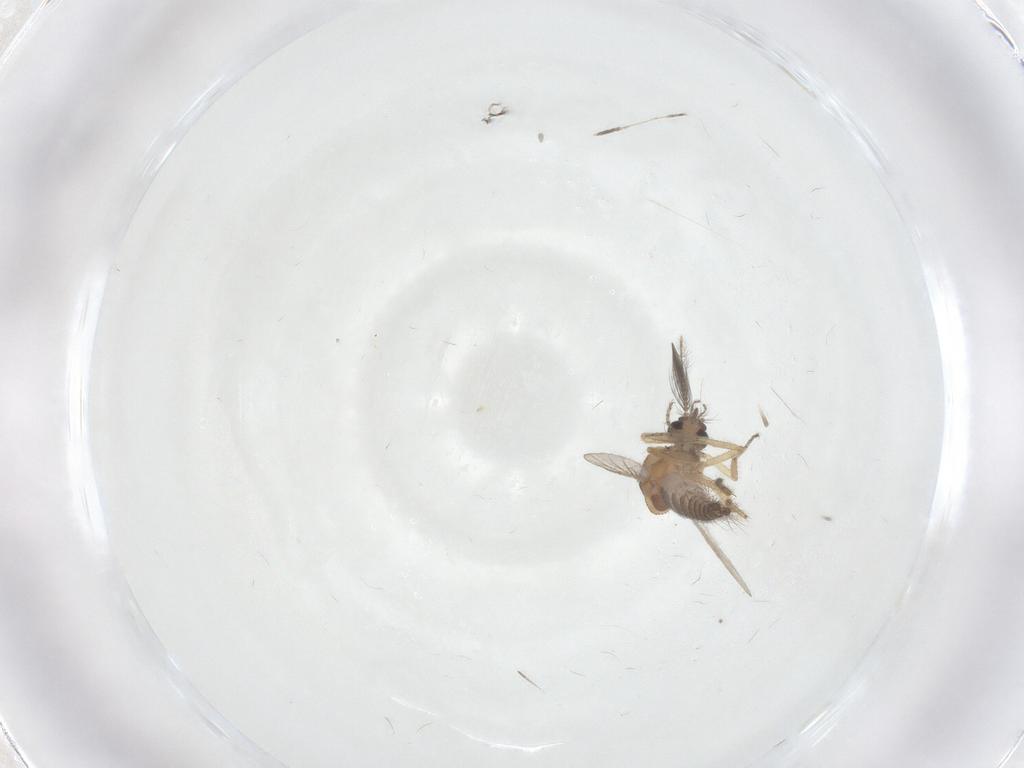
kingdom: Animalia
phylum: Arthropoda
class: Insecta
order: Diptera
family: Ceratopogonidae
